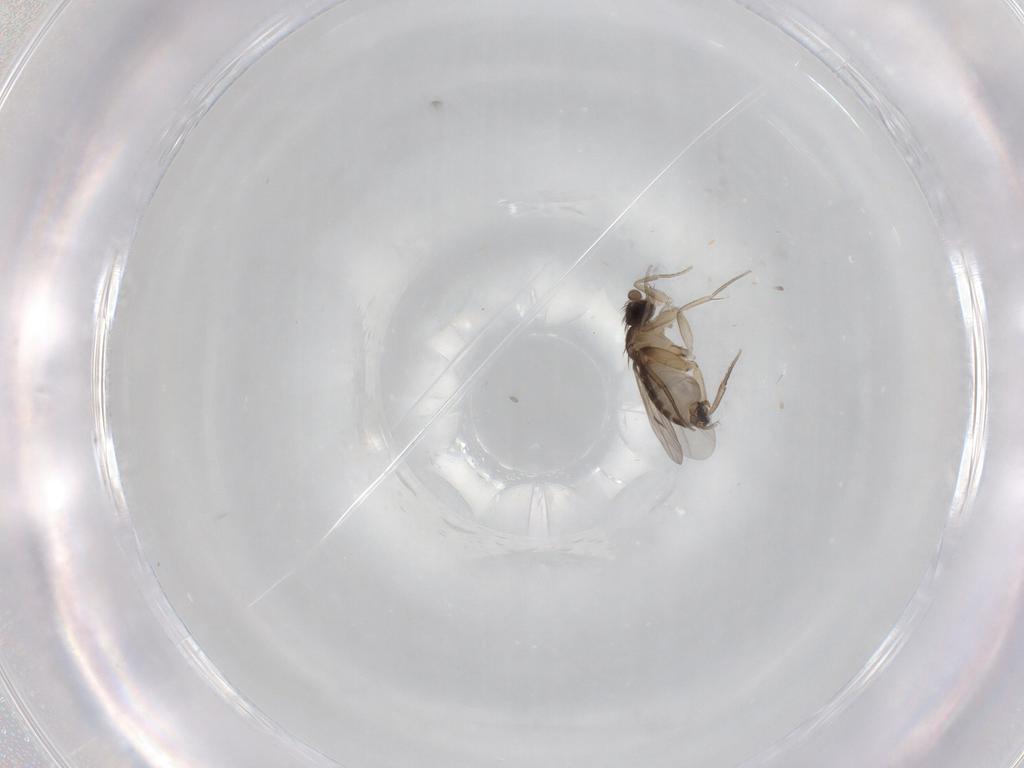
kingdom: Animalia
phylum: Arthropoda
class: Insecta
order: Diptera
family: Phoridae
